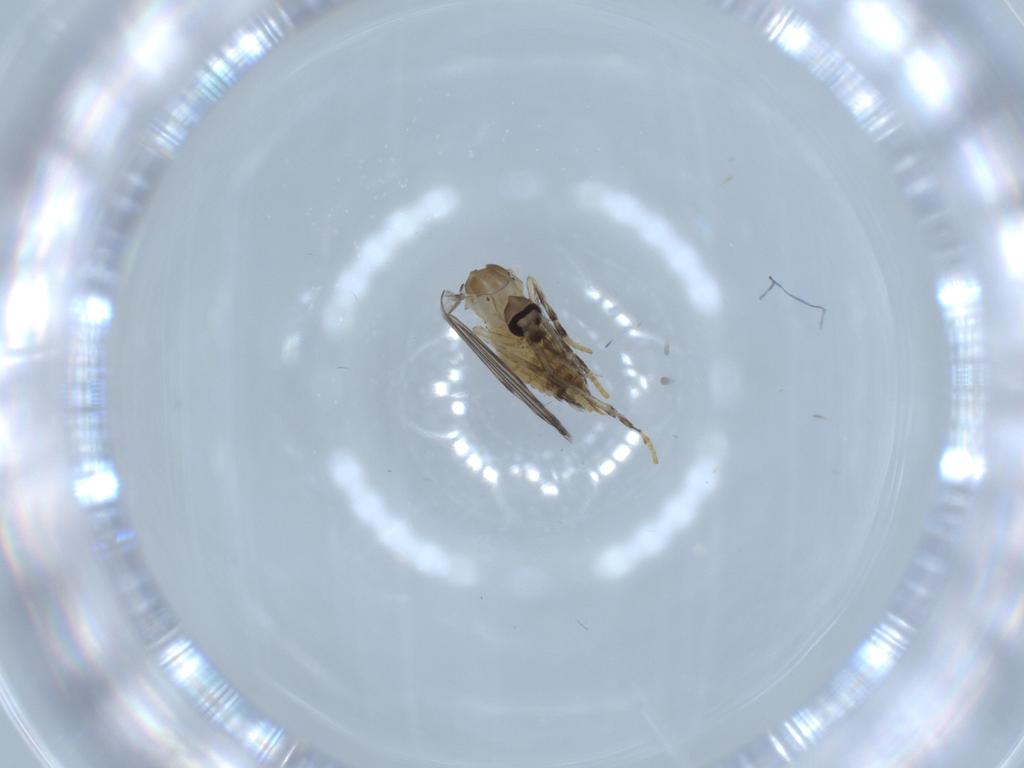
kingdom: Animalia
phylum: Arthropoda
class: Insecta
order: Diptera
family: Psychodidae
